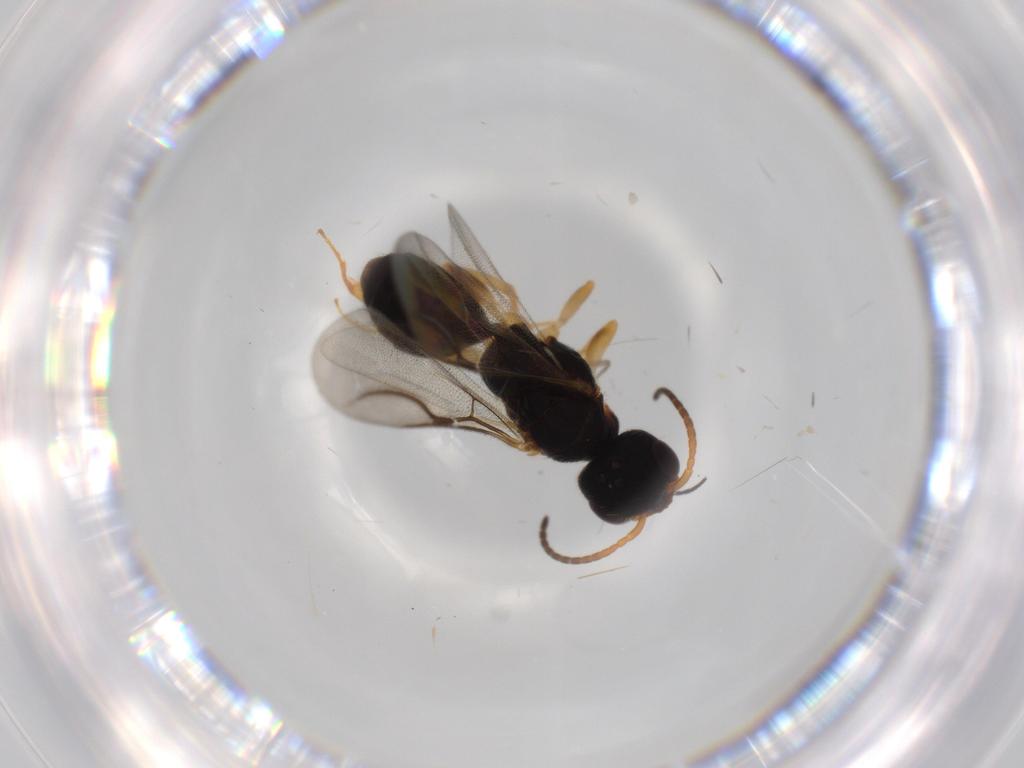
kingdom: Animalia
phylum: Arthropoda
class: Insecta
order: Hymenoptera
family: Bethylidae
